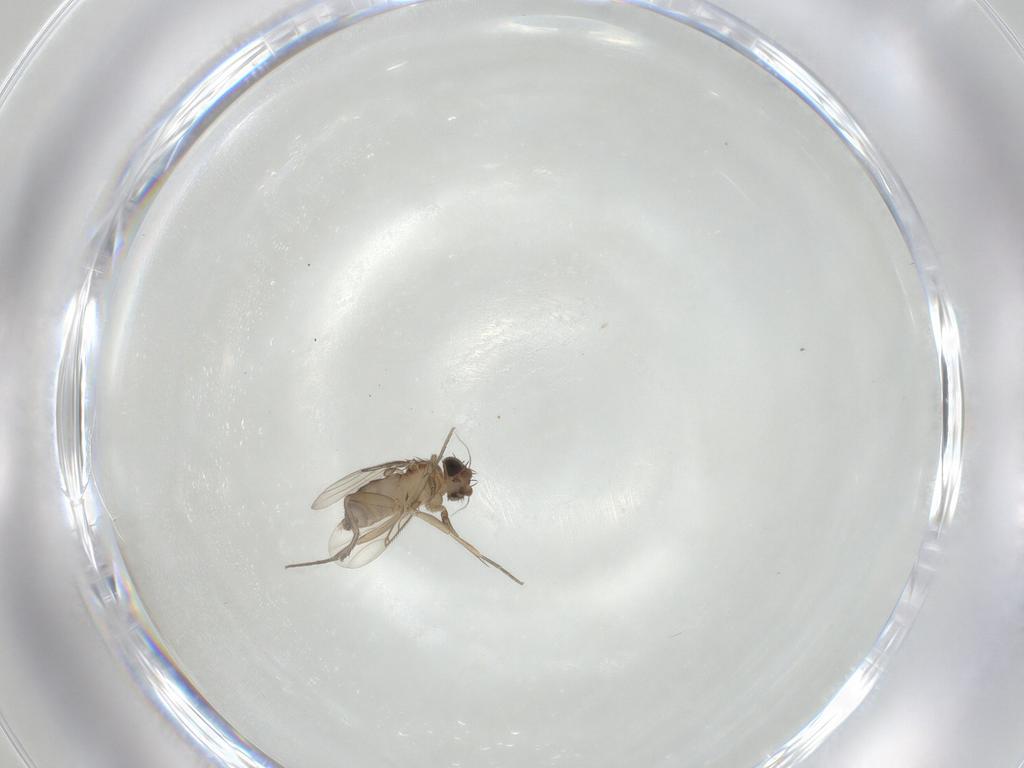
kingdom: Animalia
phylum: Arthropoda
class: Insecta
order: Diptera
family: Phoridae
